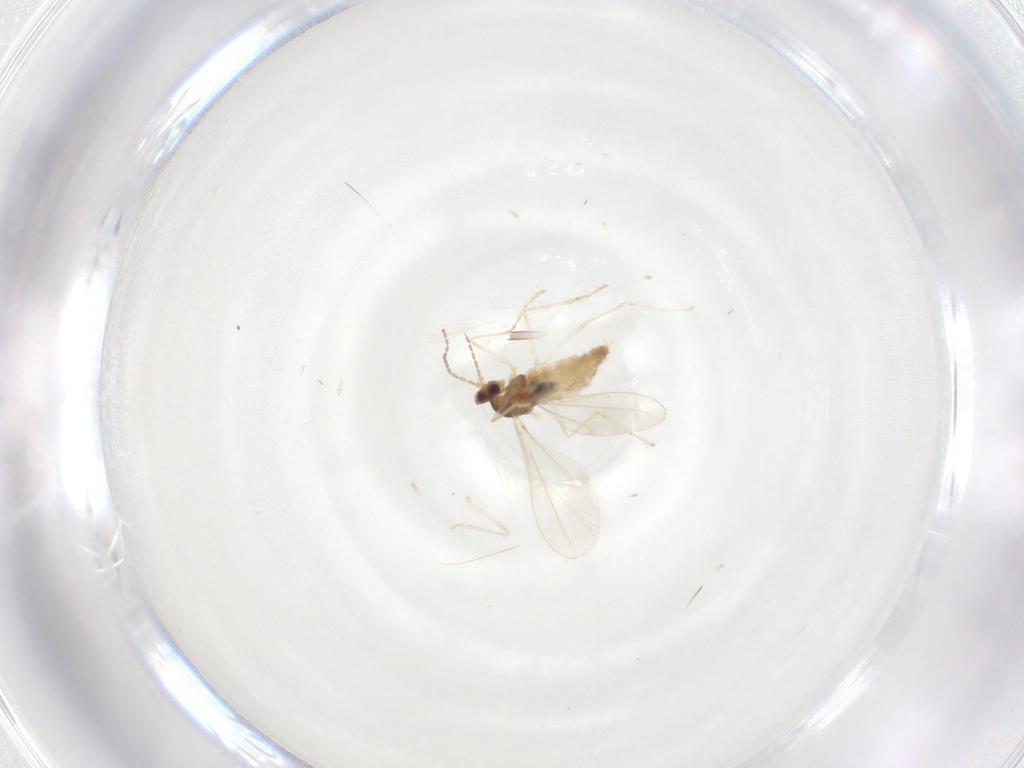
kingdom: Animalia
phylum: Arthropoda
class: Insecta
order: Diptera
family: Cecidomyiidae
